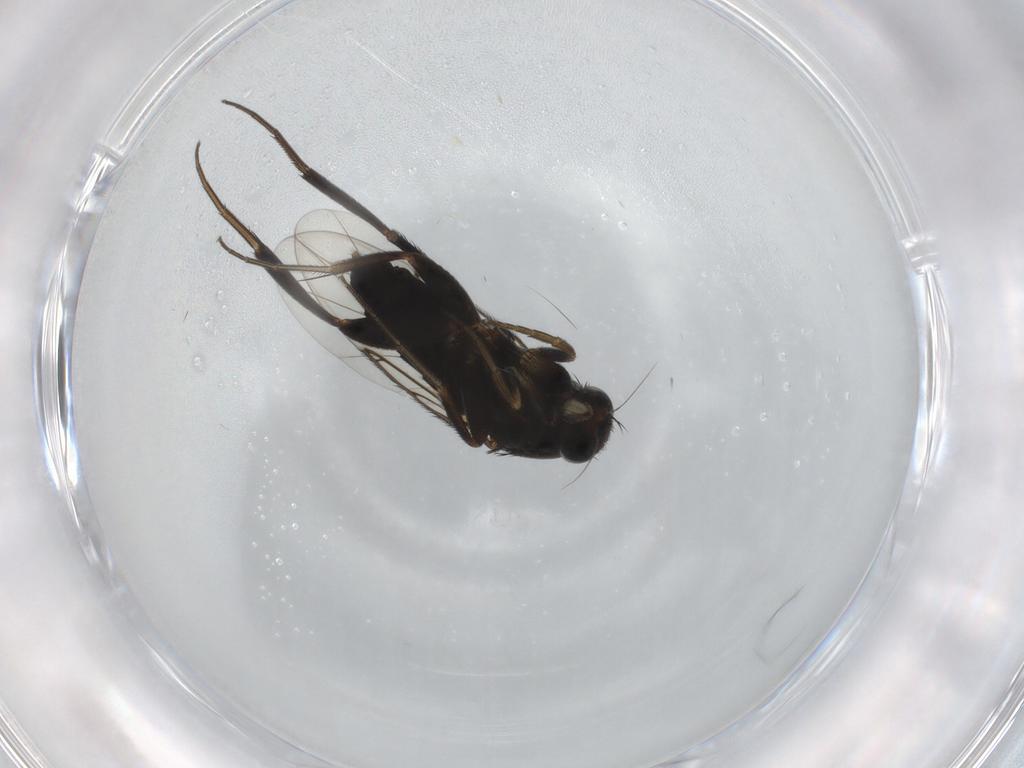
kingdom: Animalia
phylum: Arthropoda
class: Insecta
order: Diptera
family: Phoridae
